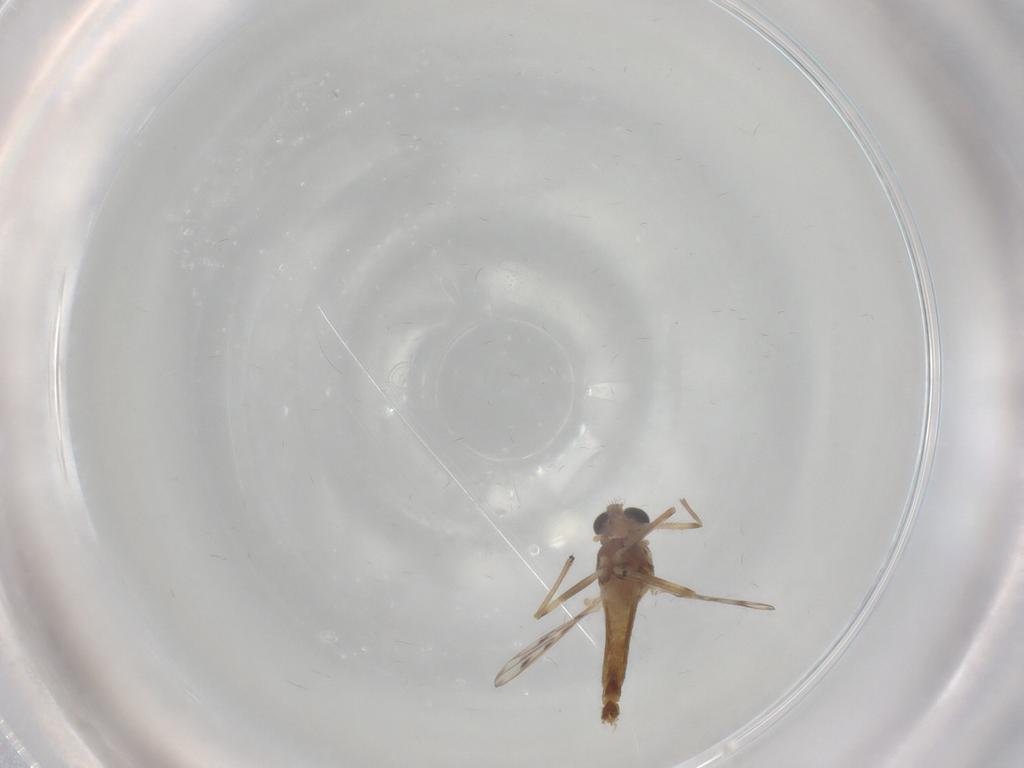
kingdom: Animalia
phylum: Arthropoda
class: Insecta
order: Diptera
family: Chironomidae
